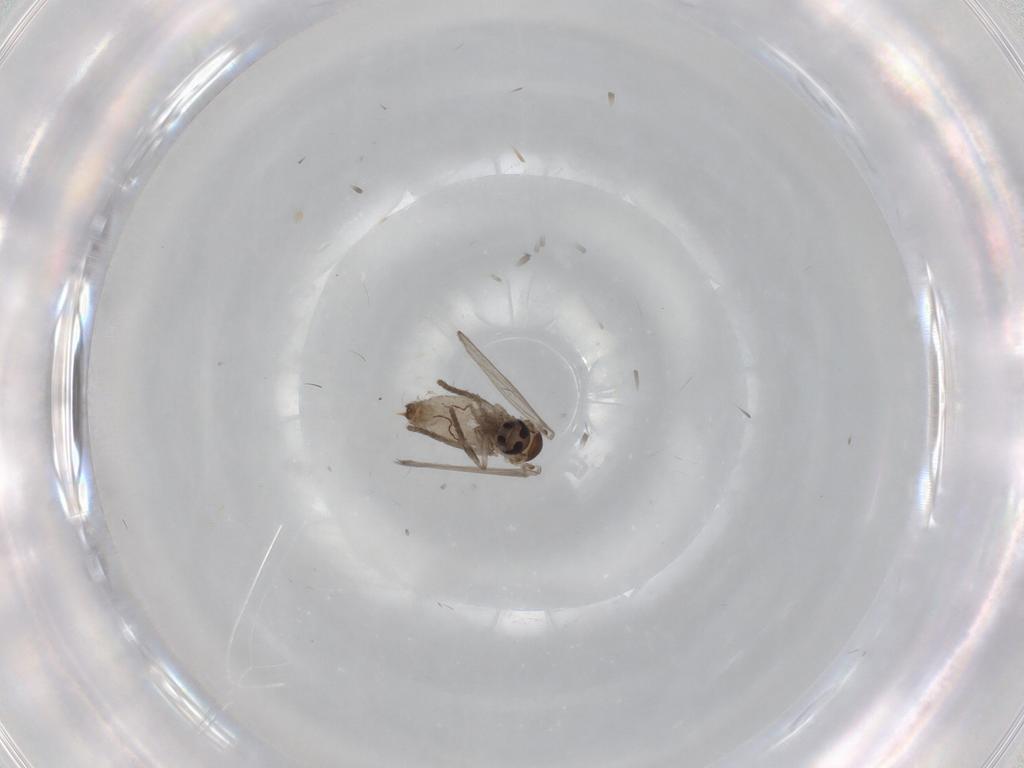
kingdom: Animalia
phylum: Arthropoda
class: Insecta
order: Diptera
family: Psychodidae
